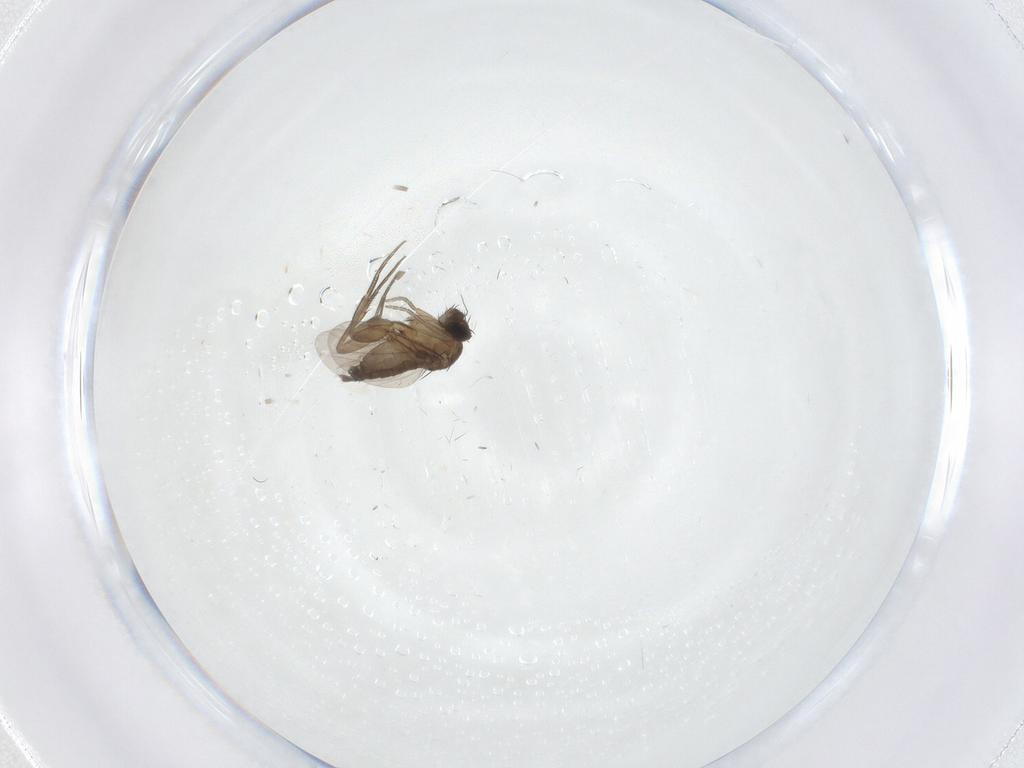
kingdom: Animalia
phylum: Arthropoda
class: Insecta
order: Diptera
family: Phoridae
